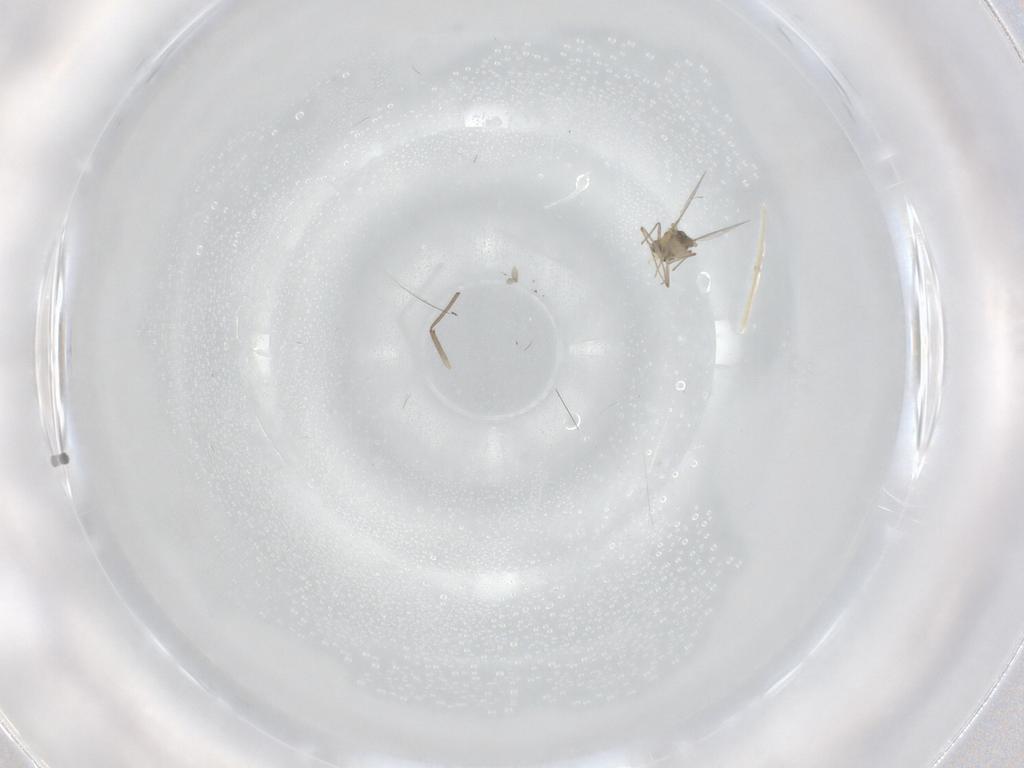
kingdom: Animalia
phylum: Arthropoda
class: Insecta
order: Diptera
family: Chironomidae
